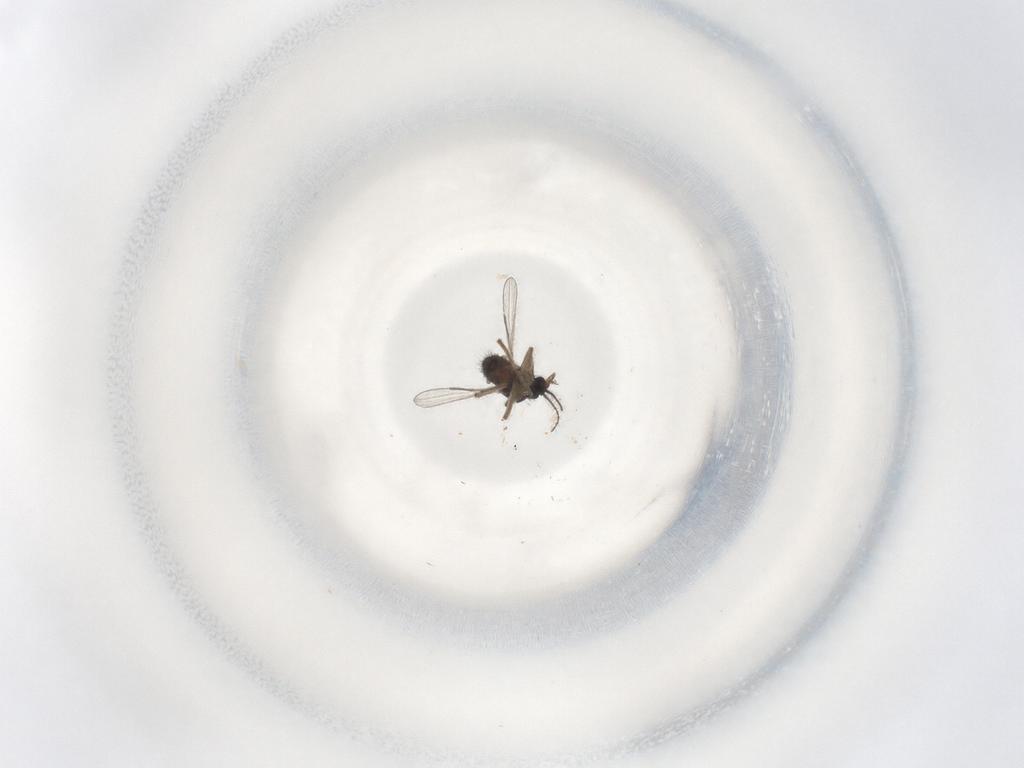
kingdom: Animalia
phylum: Arthropoda
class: Insecta
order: Diptera
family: Ceratopogonidae
